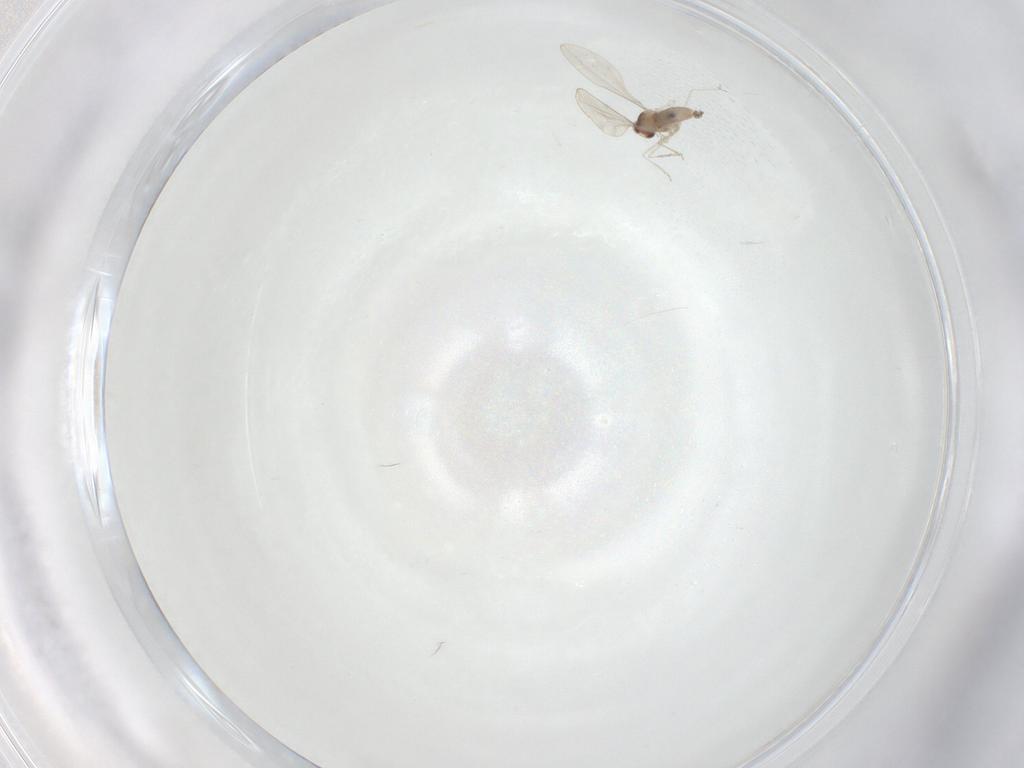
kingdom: Animalia
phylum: Arthropoda
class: Insecta
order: Diptera
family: Cecidomyiidae
